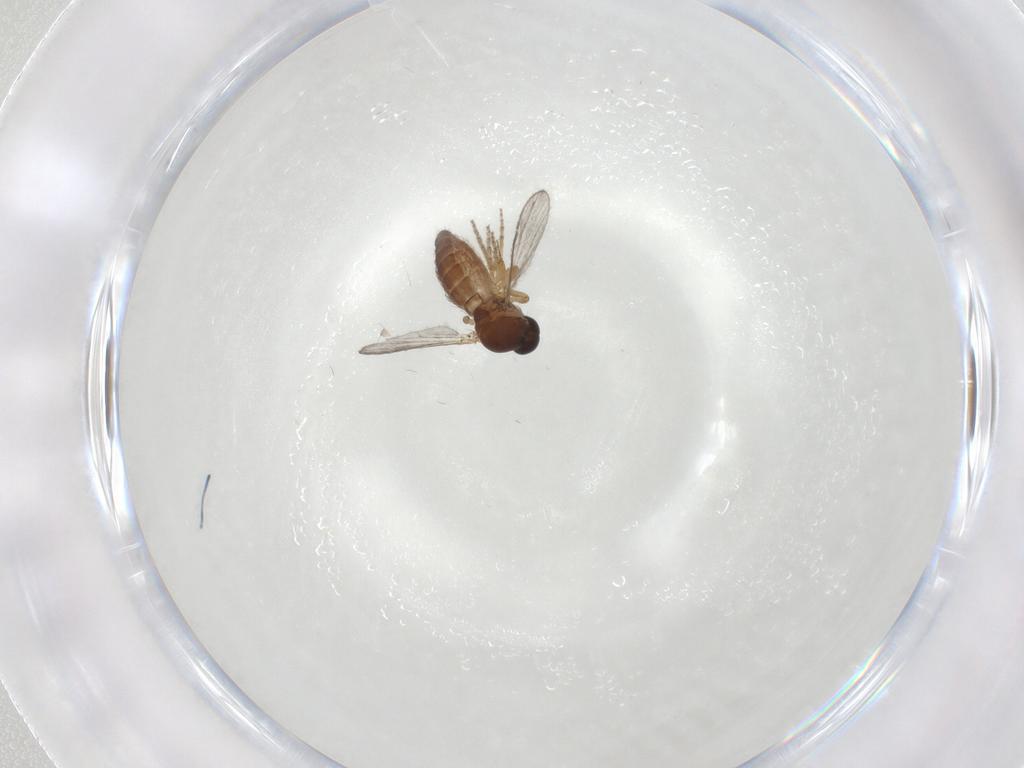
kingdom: Animalia
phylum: Arthropoda
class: Insecta
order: Diptera
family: Ceratopogonidae
